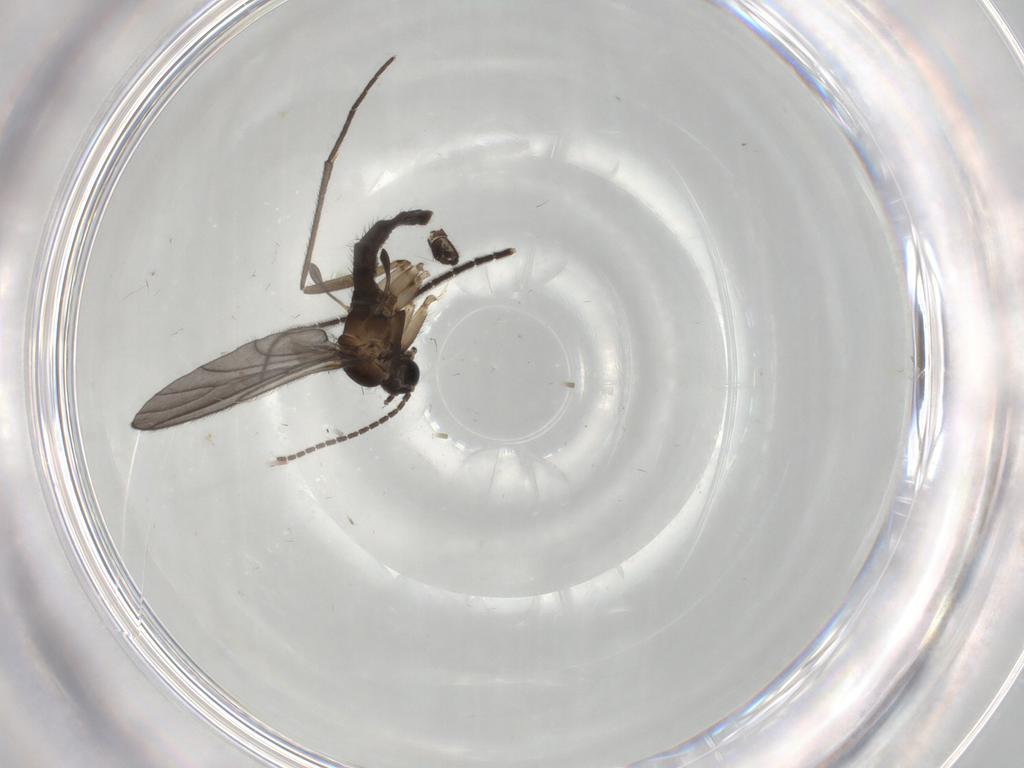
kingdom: Animalia
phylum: Arthropoda
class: Insecta
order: Diptera
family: Sciaridae
